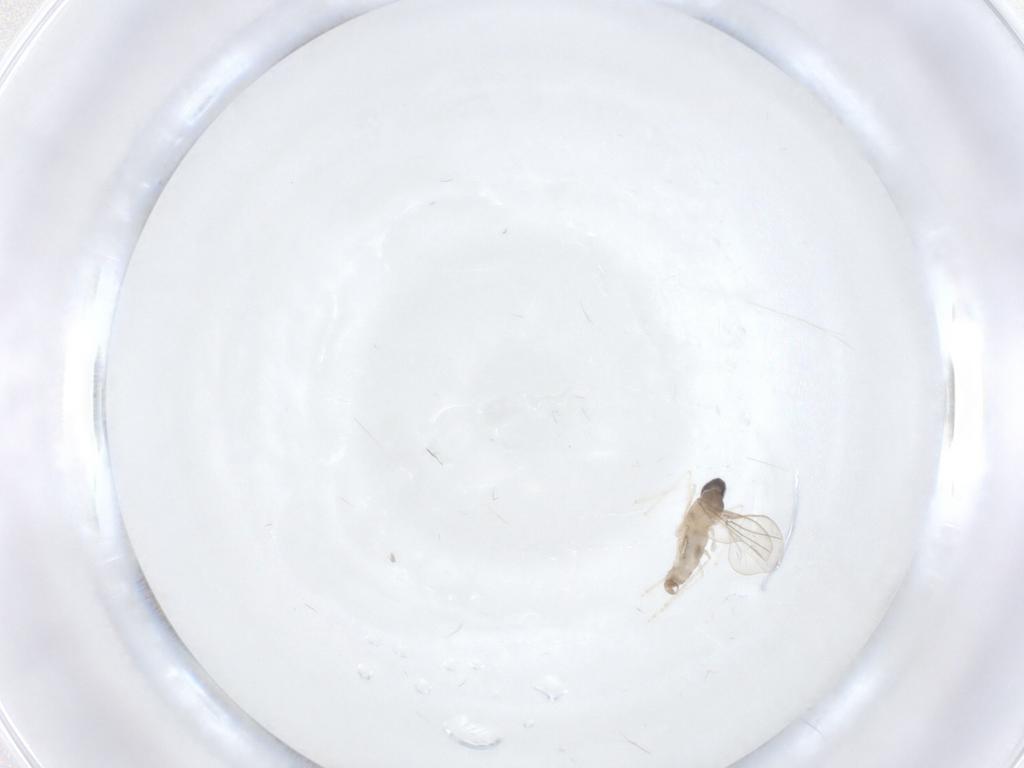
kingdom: Animalia
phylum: Arthropoda
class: Insecta
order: Diptera
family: Cecidomyiidae
